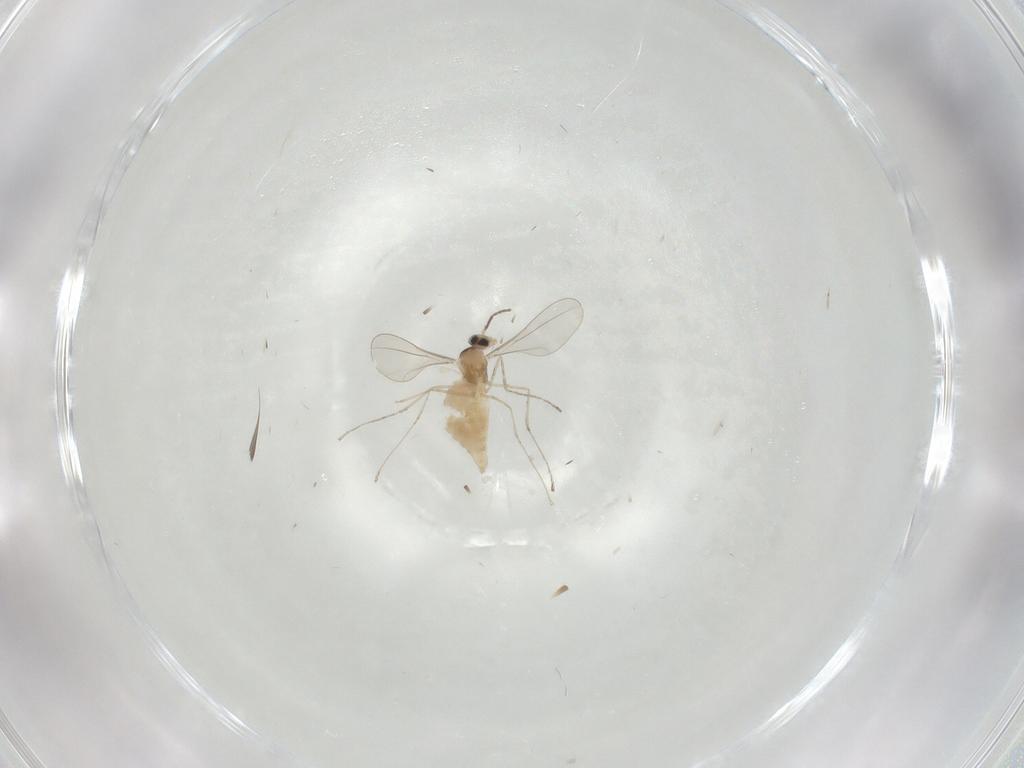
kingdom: Animalia
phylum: Arthropoda
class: Insecta
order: Diptera
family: Cecidomyiidae
